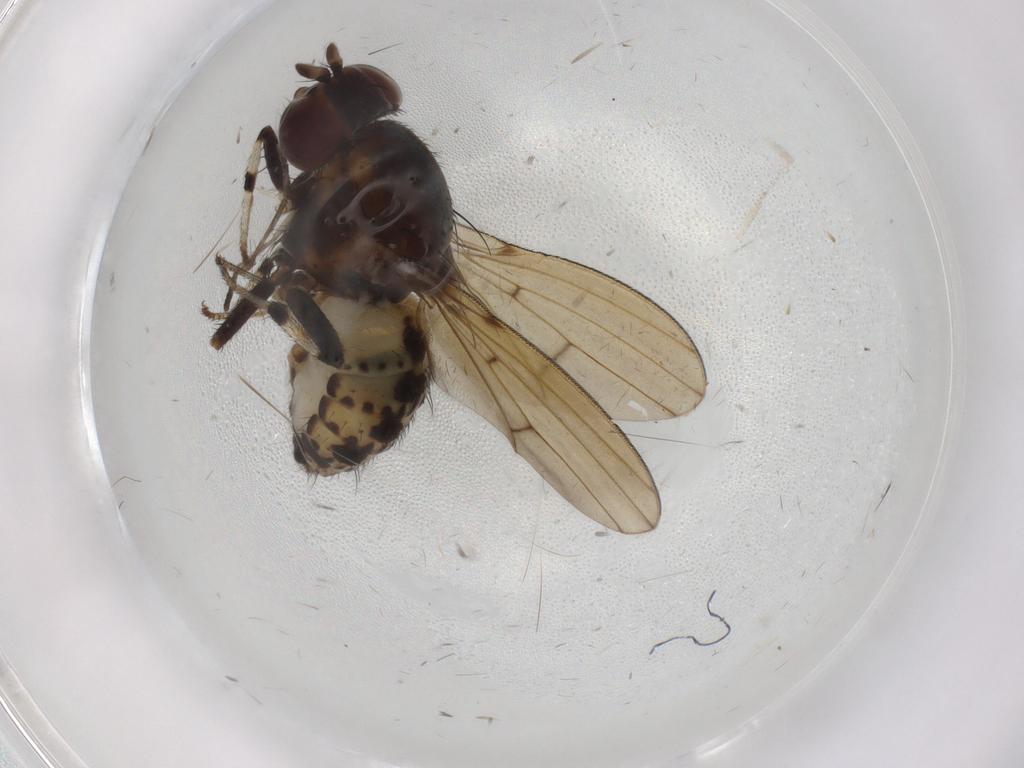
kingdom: Animalia
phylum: Arthropoda
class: Insecta
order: Diptera
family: Sciaridae
